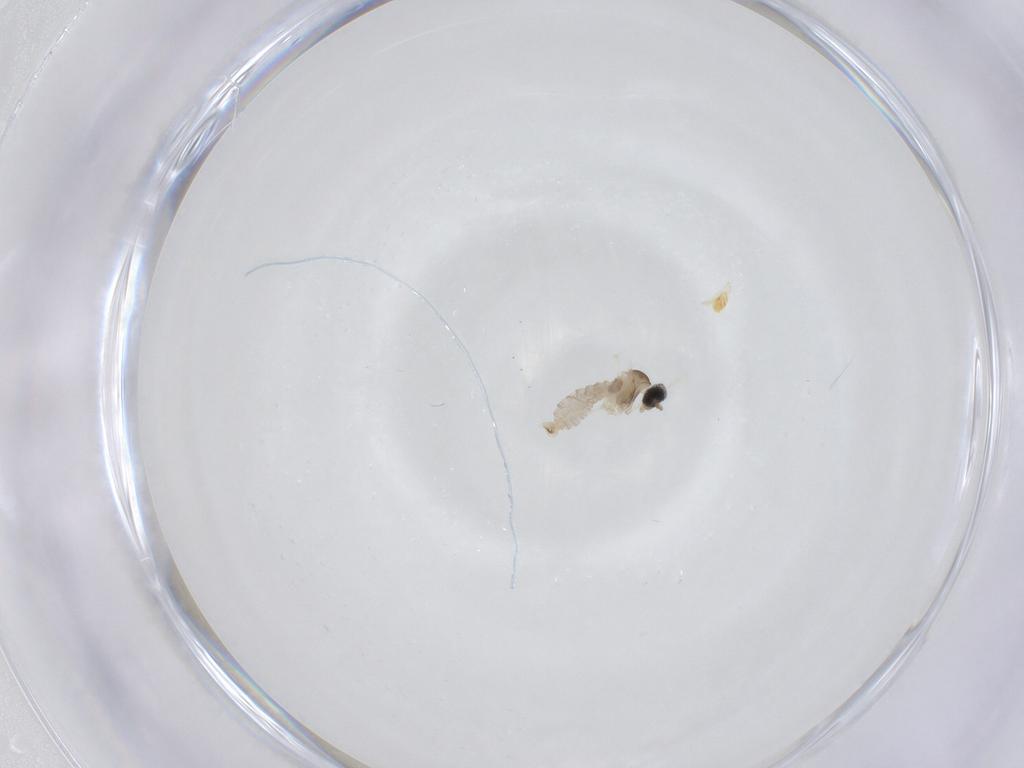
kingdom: Animalia
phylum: Arthropoda
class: Insecta
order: Diptera
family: Cecidomyiidae
